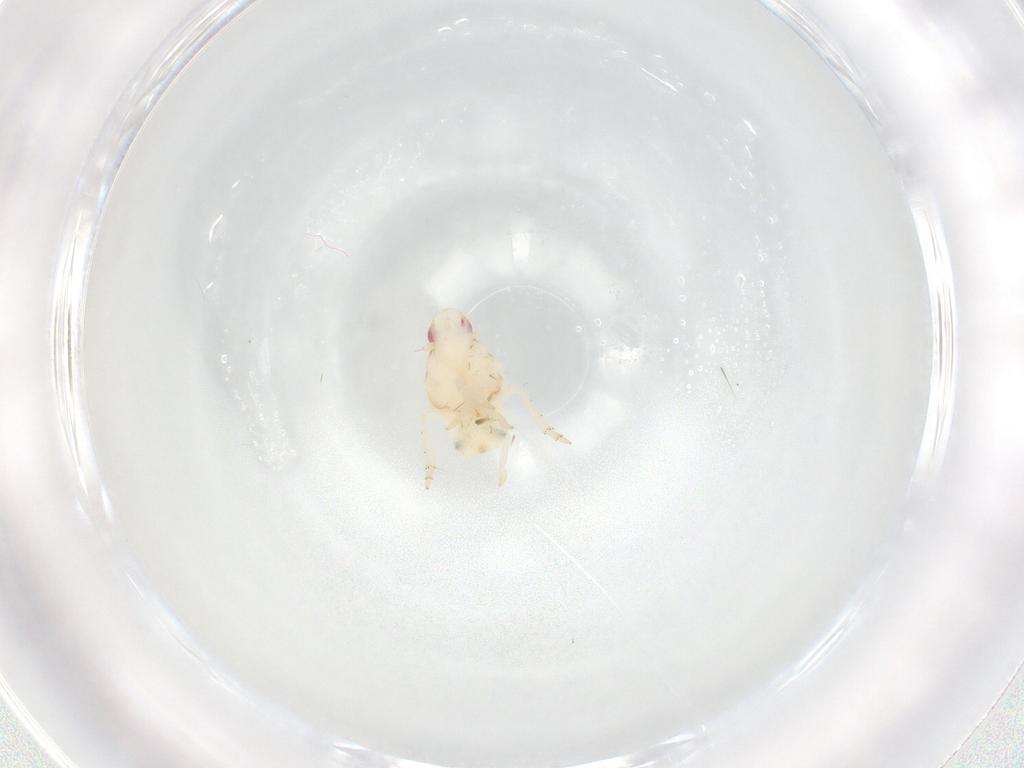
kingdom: Animalia
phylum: Arthropoda
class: Insecta
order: Hemiptera
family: Flatidae
